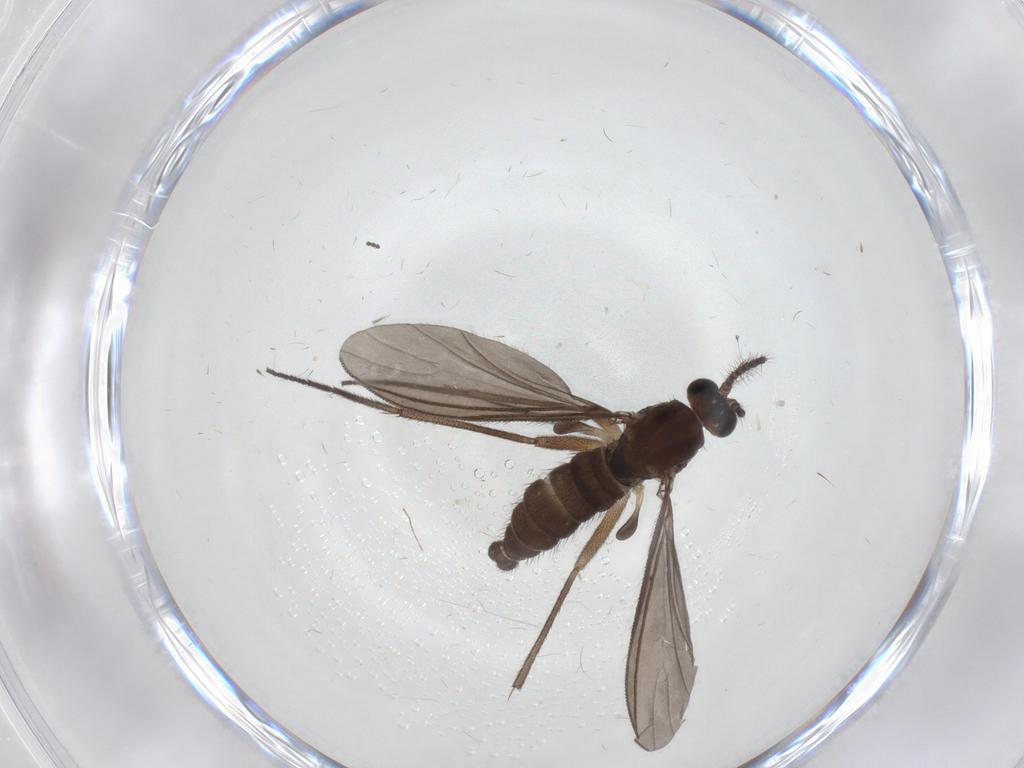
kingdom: Animalia
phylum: Arthropoda
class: Insecta
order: Diptera
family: Sciaridae
